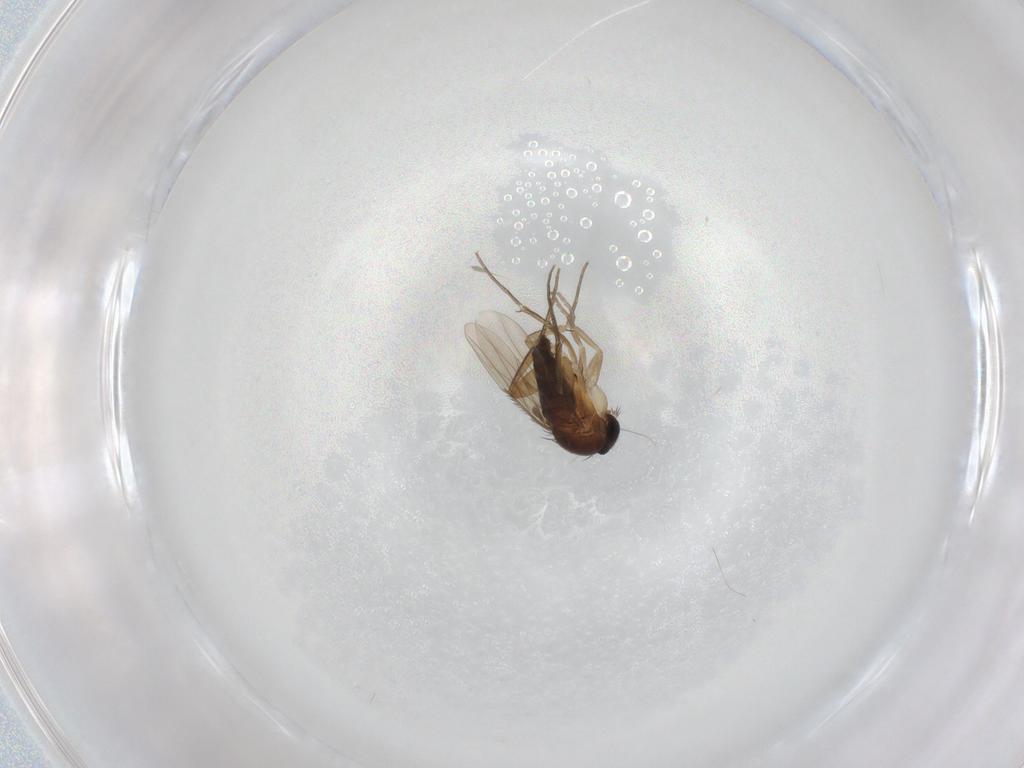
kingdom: Animalia
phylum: Arthropoda
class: Insecta
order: Diptera
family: Phoridae
